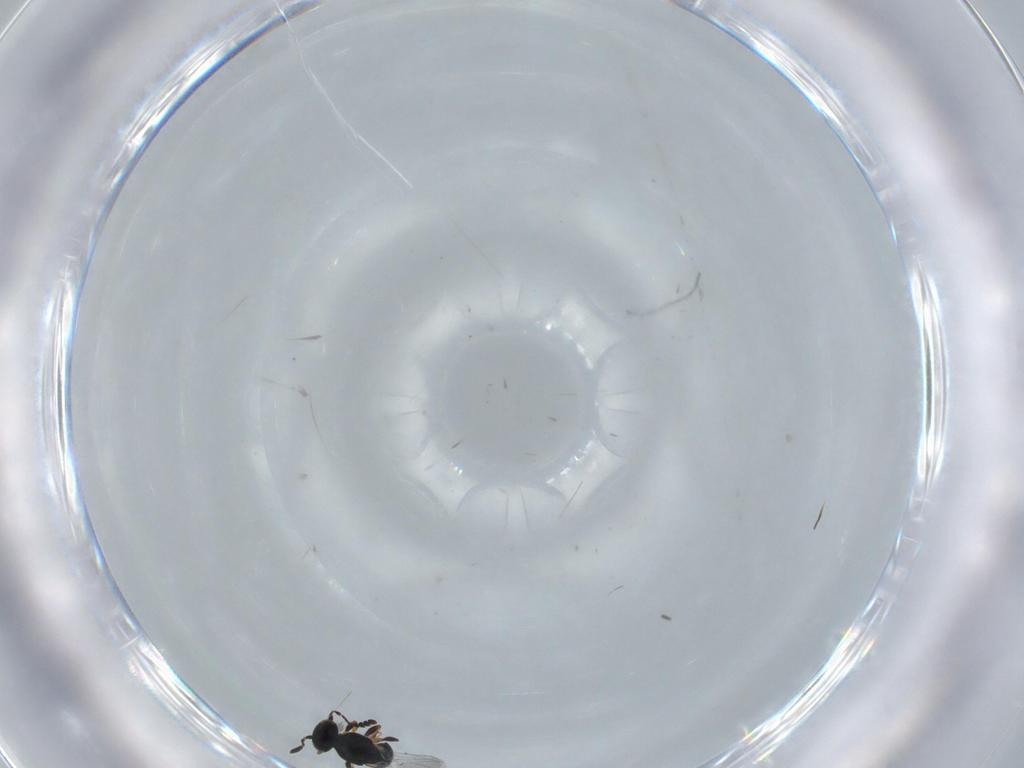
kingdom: Animalia
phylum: Arthropoda
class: Insecta
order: Hymenoptera
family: Platygastridae
